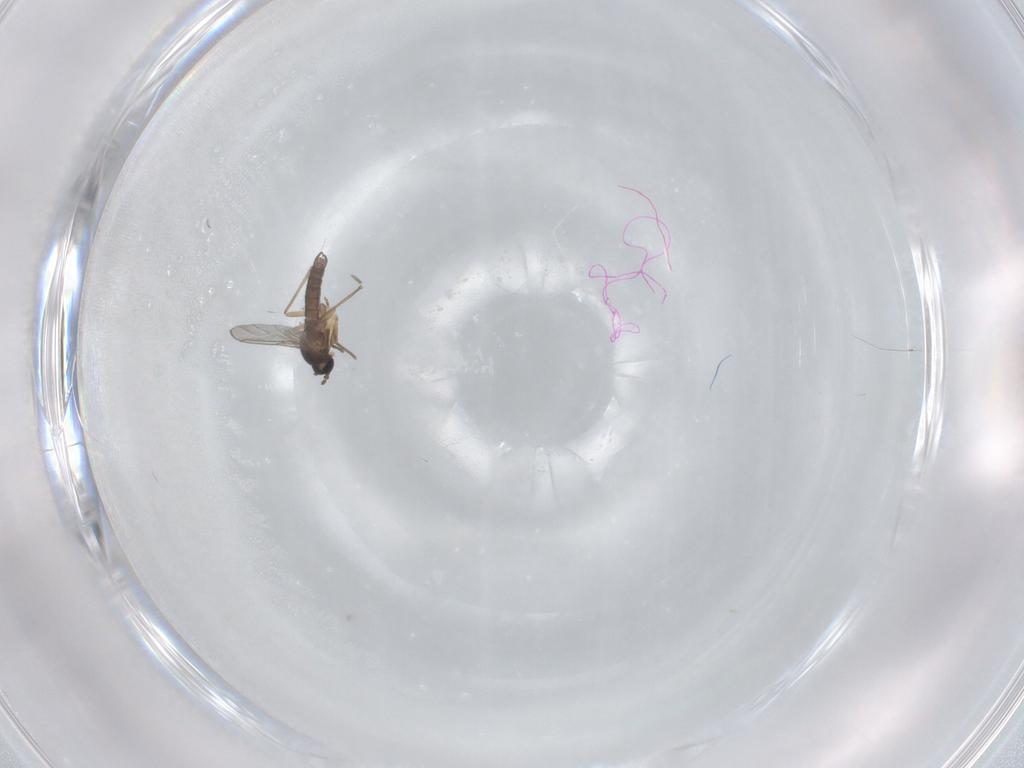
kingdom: Animalia
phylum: Arthropoda
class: Insecta
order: Diptera
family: Sciaridae
